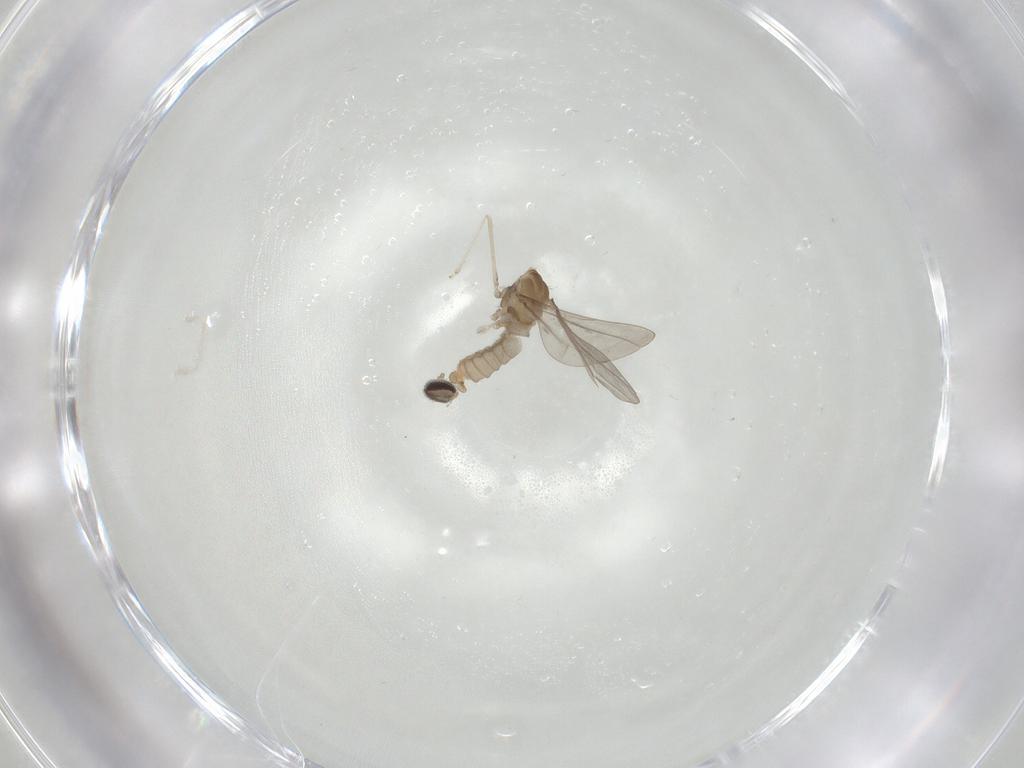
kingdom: Animalia
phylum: Arthropoda
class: Insecta
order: Diptera
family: Cecidomyiidae
